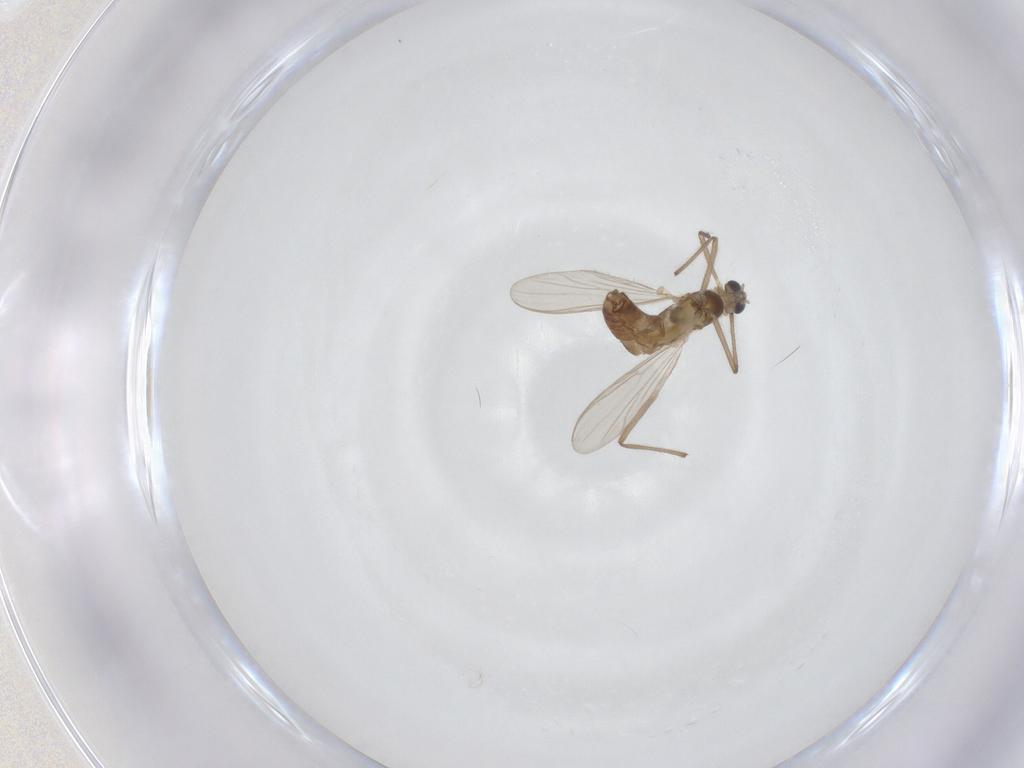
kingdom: Animalia
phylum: Arthropoda
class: Insecta
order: Diptera
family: Chironomidae
